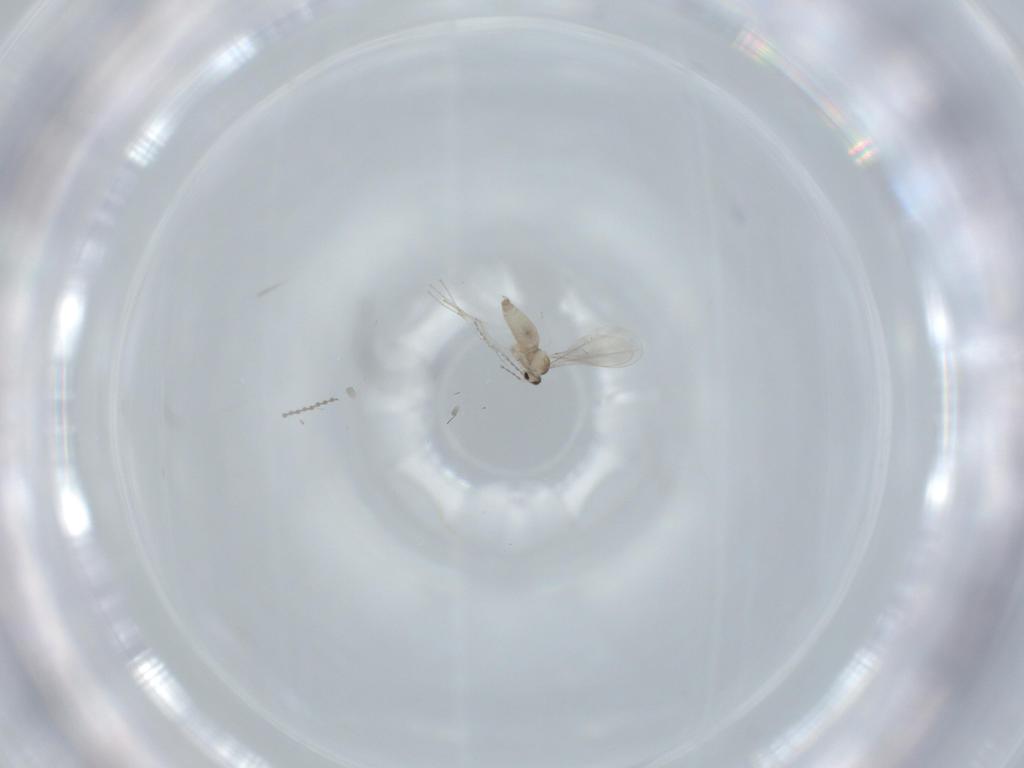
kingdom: Animalia
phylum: Arthropoda
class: Insecta
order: Diptera
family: Cecidomyiidae
